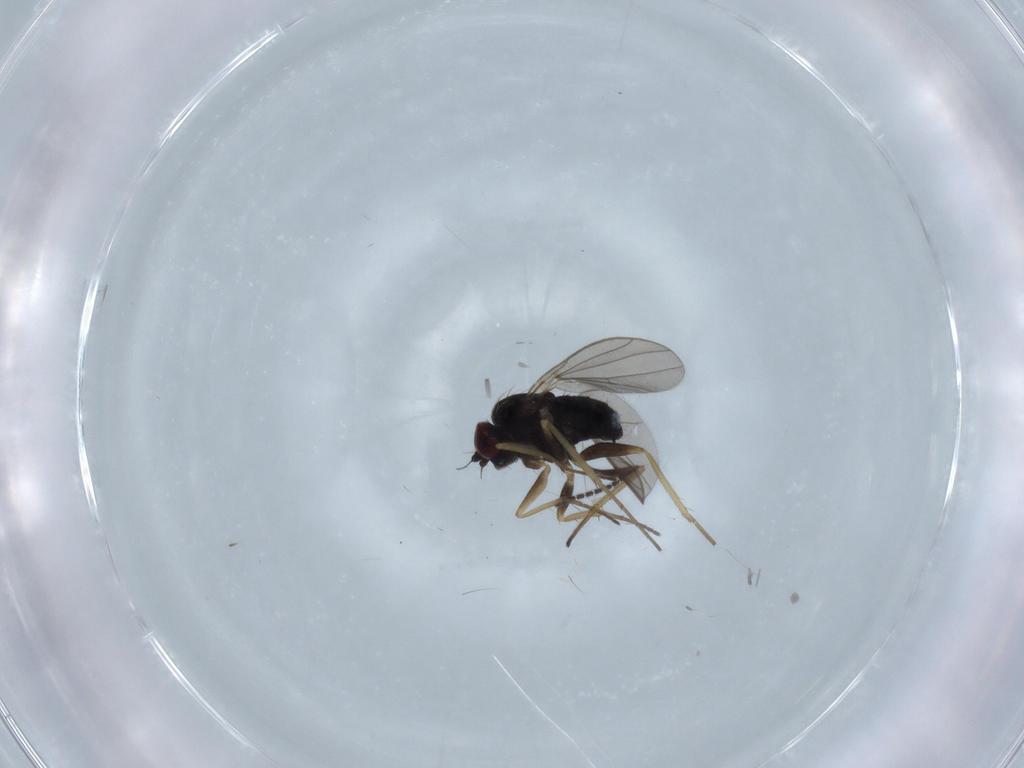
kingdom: Animalia
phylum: Arthropoda
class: Insecta
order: Diptera
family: Dolichopodidae
